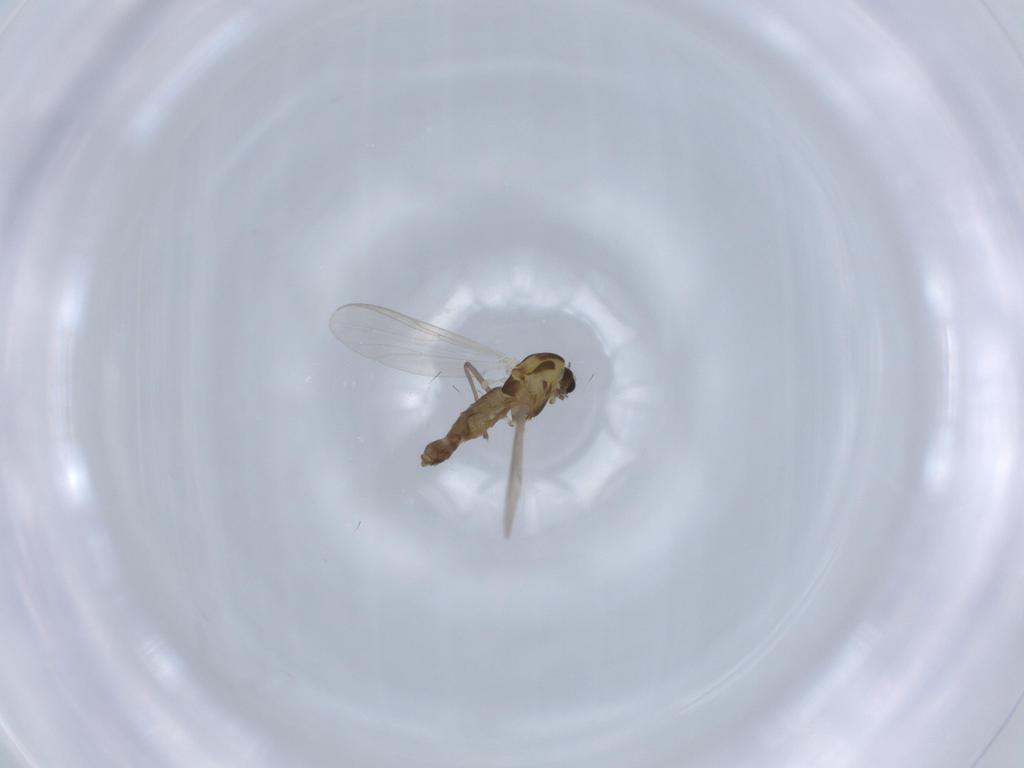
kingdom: Animalia
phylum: Arthropoda
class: Insecta
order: Diptera
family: Chironomidae
